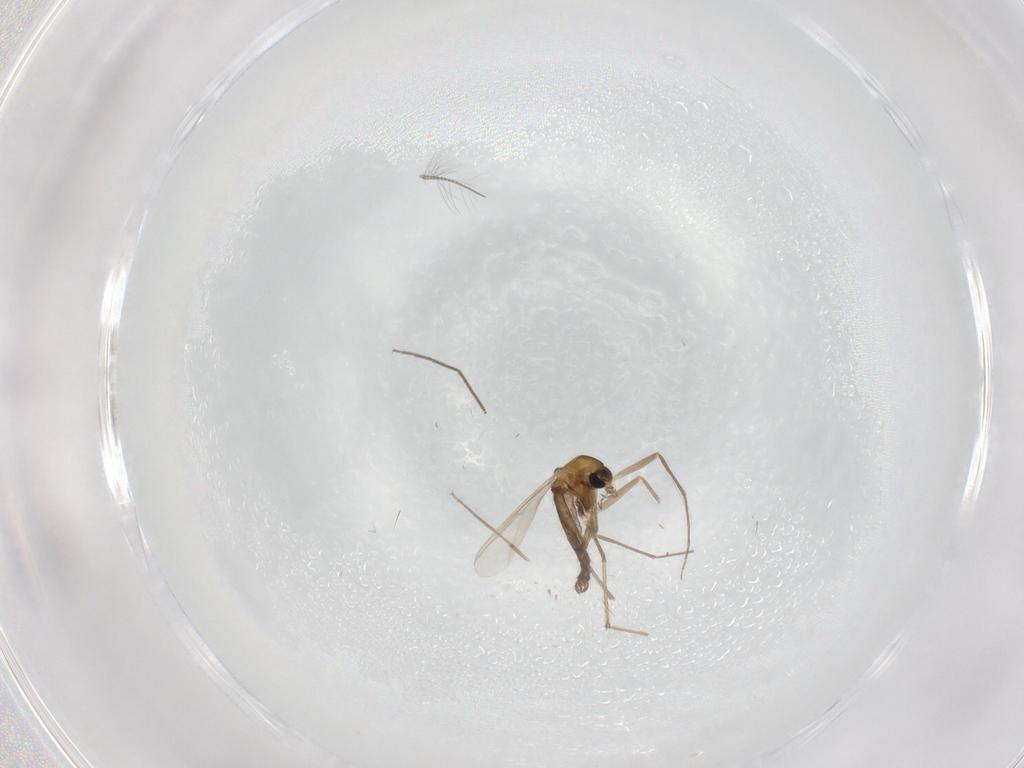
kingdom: Animalia
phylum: Arthropoda
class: Insecta
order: Diptera
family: Chironomidae
